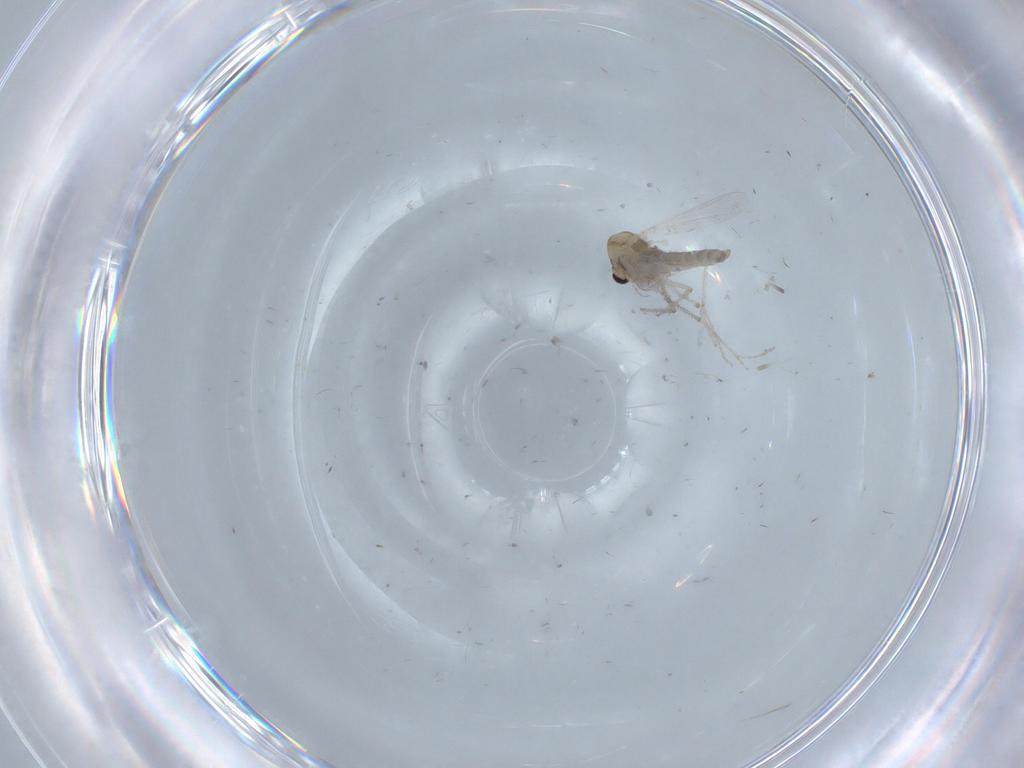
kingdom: Animalia
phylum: Arthropoda
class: Insecta
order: Diptera
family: Chironomidae
